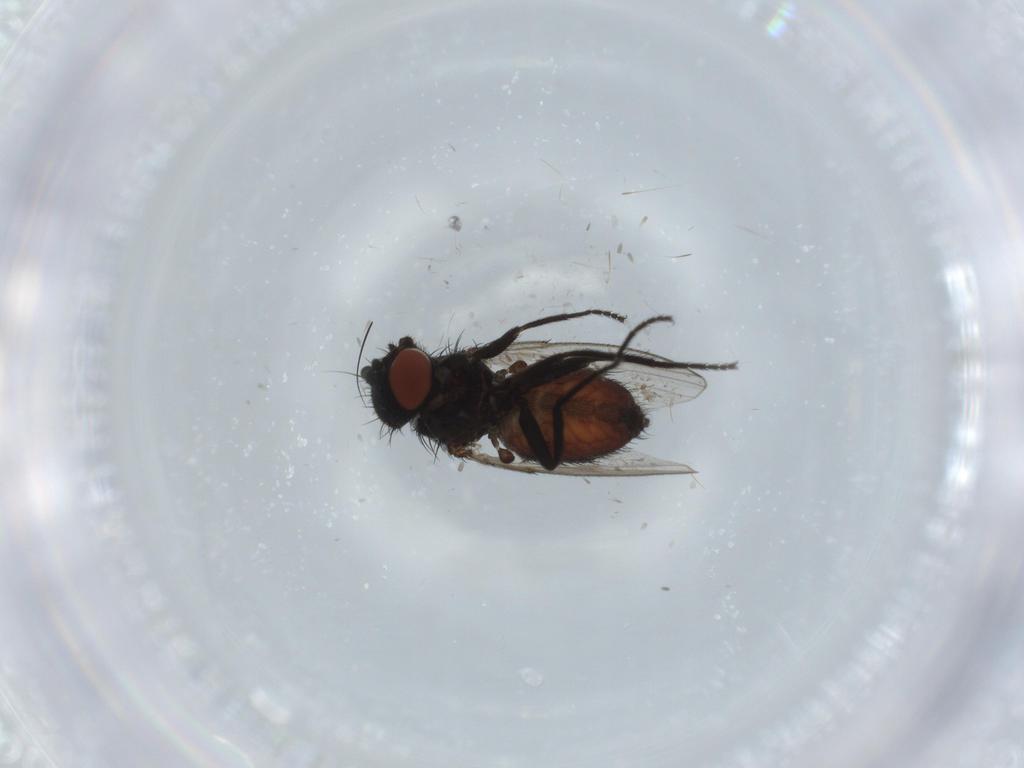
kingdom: Animalia
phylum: Arthropoda
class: Insecta
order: Diptera
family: Milichiidae
